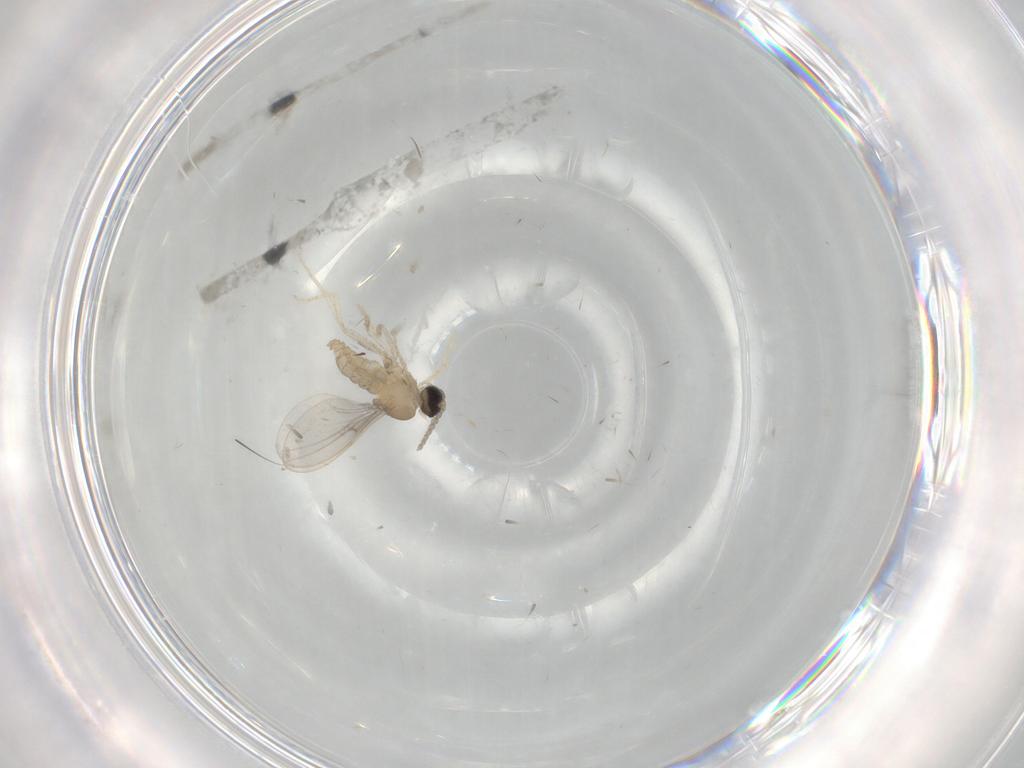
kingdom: Animalia
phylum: Arthropoda
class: Insecta
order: Diptera
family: Cecidomyiidae
